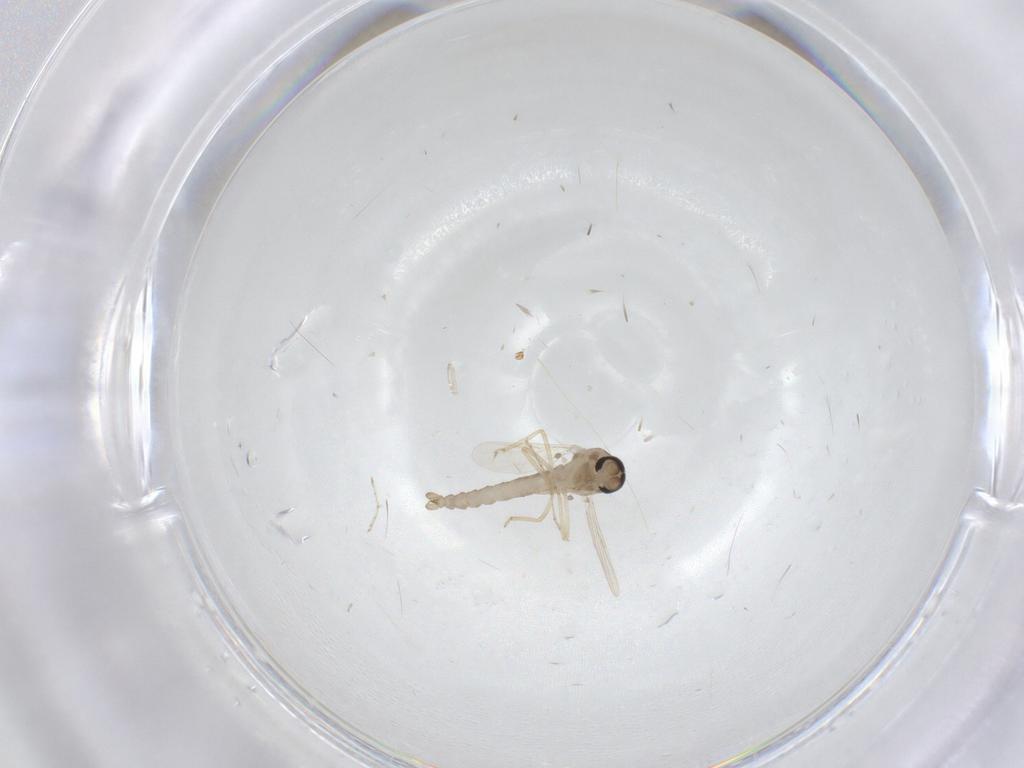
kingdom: Animalia
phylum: Arthropoda
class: Insecta
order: Diptera
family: Ceratopogonidae
